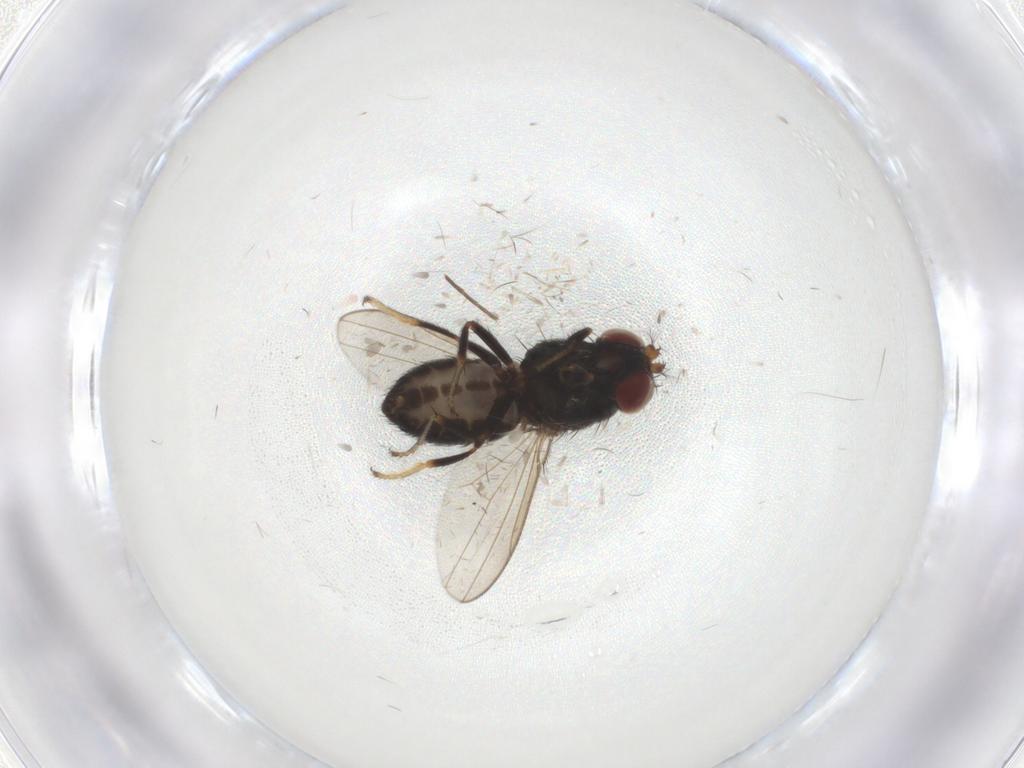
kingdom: Animalia
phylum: Arthropoda
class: Insecta
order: Diptera
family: Ephydridae
